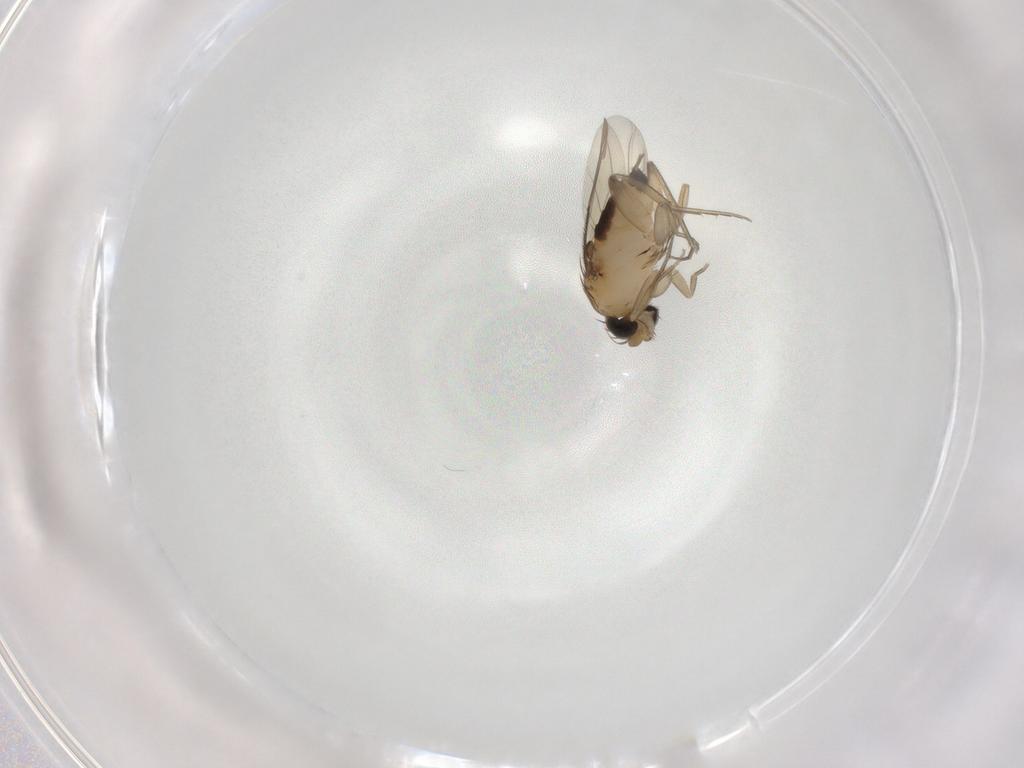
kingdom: Animalia
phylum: Arthropoda
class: Insecta
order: Diptera
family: Phoridae
